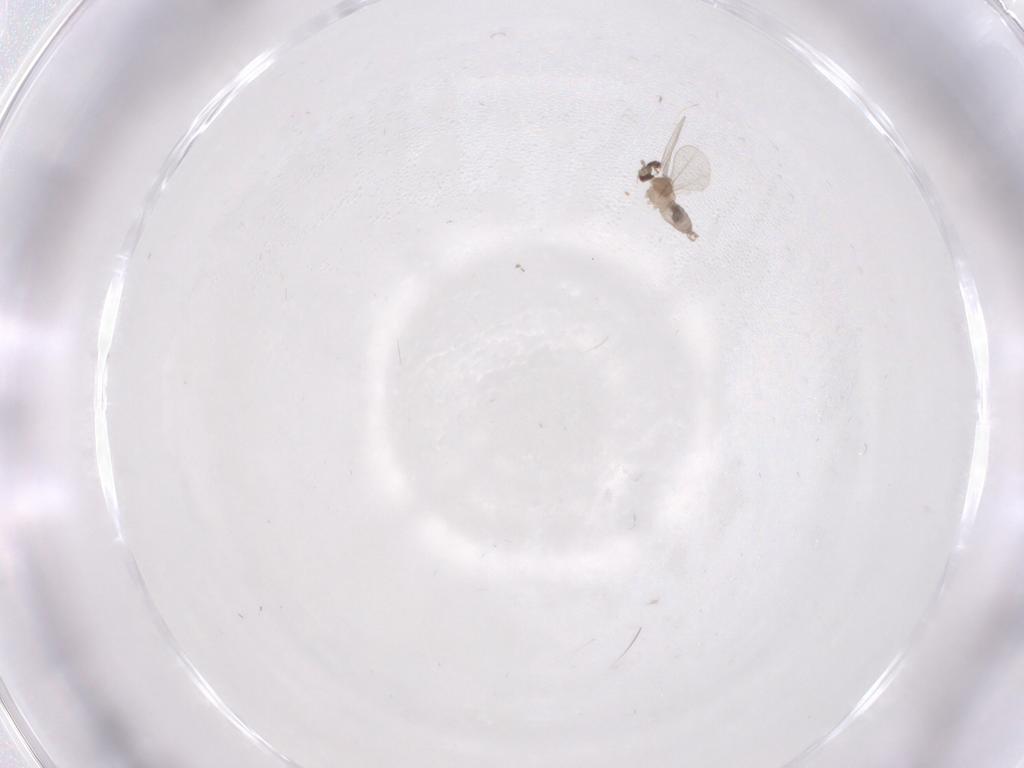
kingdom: Animalia
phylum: Arthropoda
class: Insecta
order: Diptera
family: Cecidomyiidae
